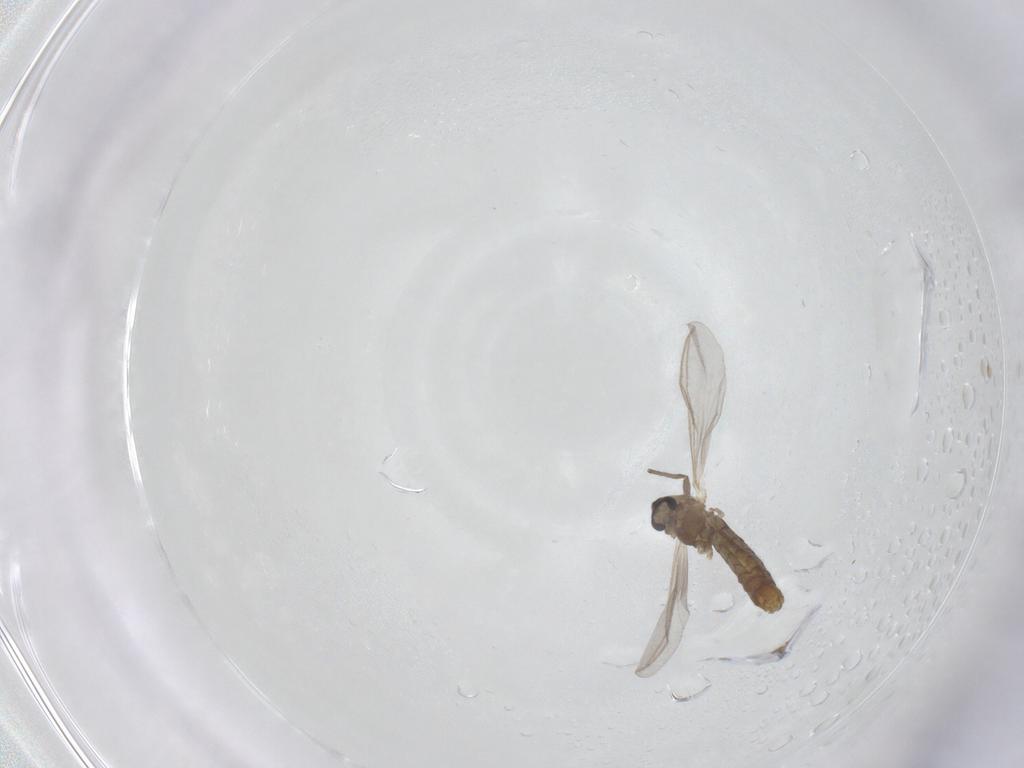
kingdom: Animalia
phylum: Arthropoda
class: Insecta
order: Diptera
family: Chironomidae
